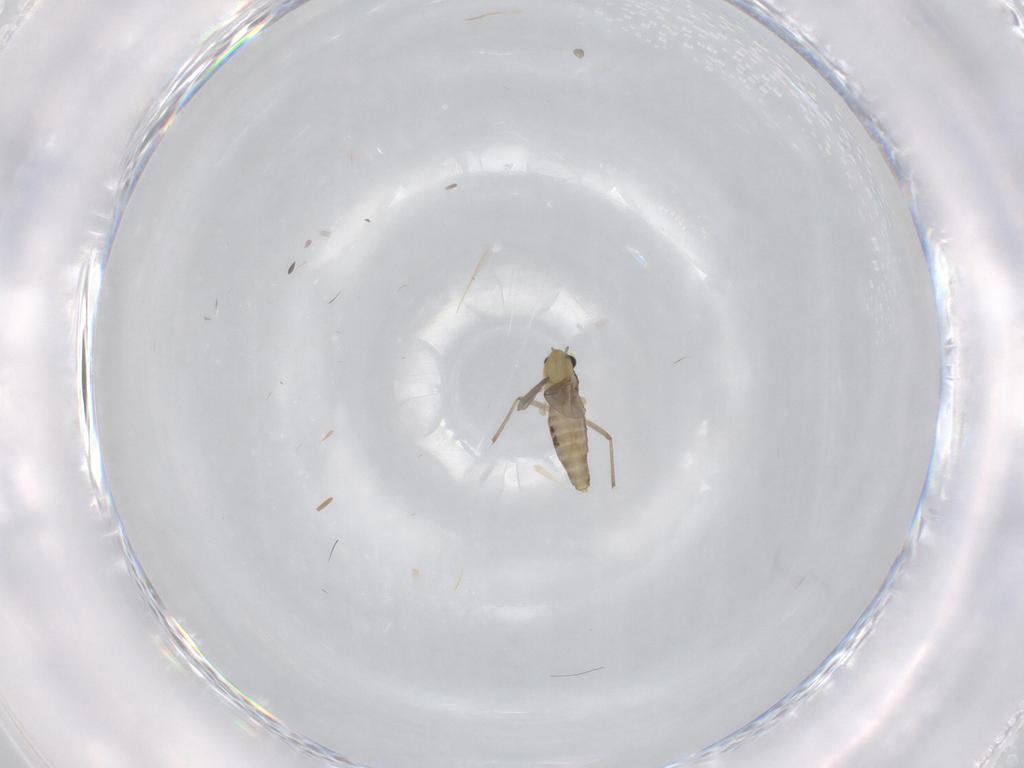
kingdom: Animalia
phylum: Arthropoda
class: Insecta
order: Diptera
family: Chironomidae
